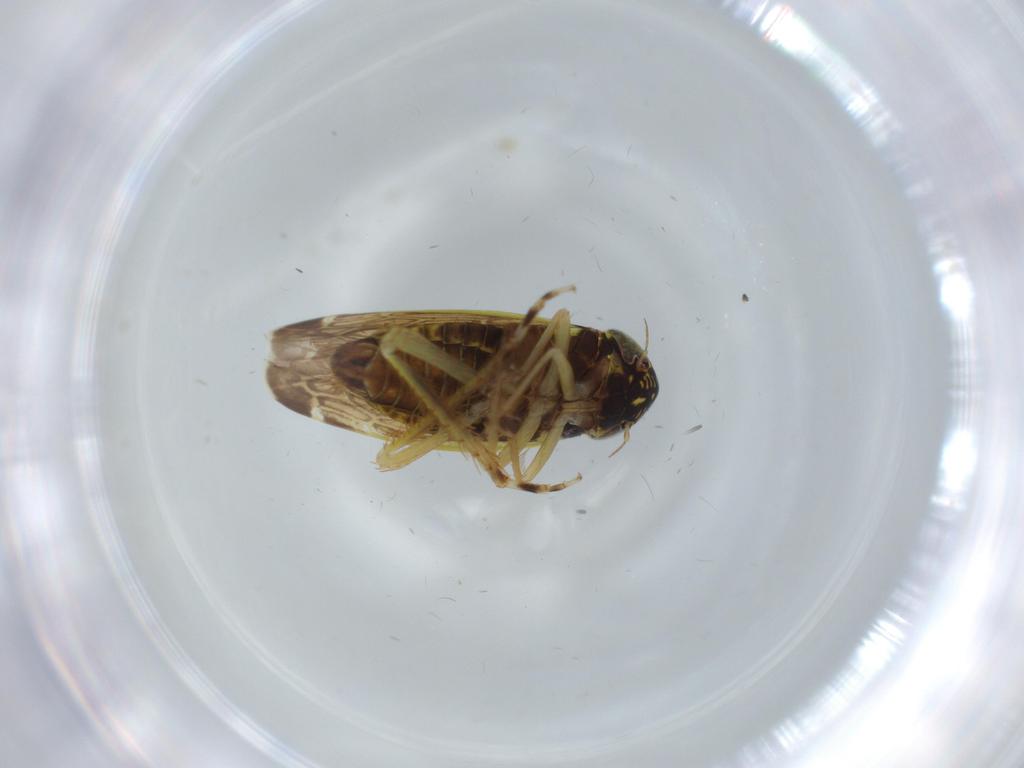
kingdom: Animalia
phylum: Arthropoda
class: Insecta
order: Hemiptera
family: Cicadellidae
